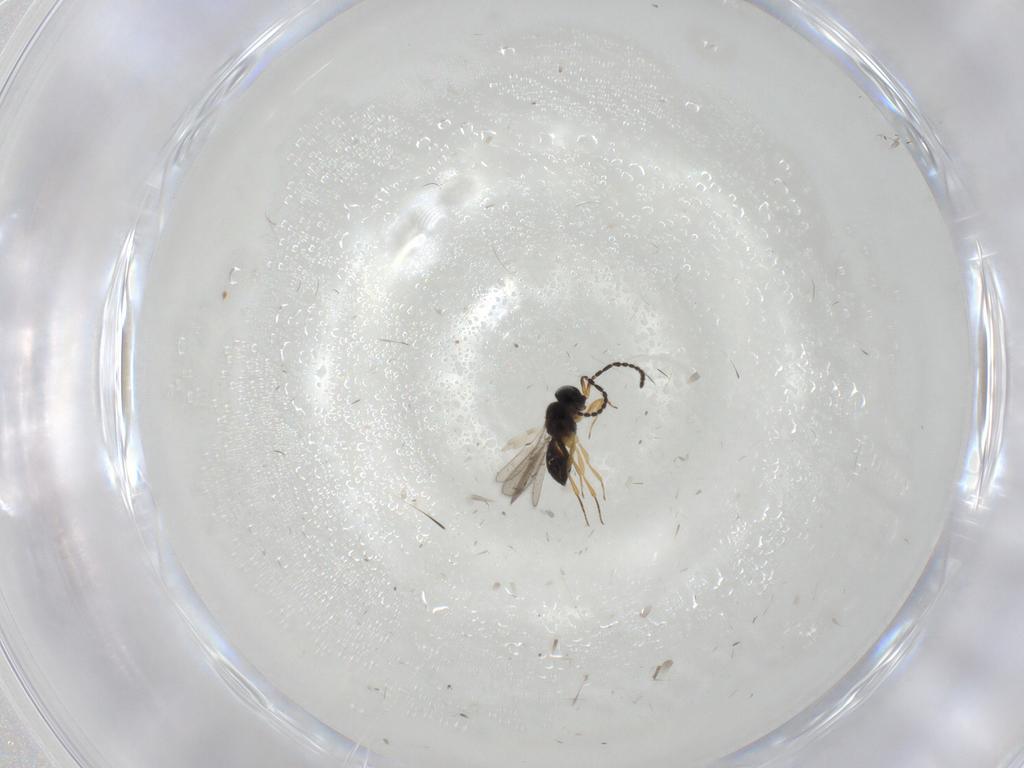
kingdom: Animalia
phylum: Arthropoda
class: Insecta
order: Hymenoptera
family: Scelionidae
